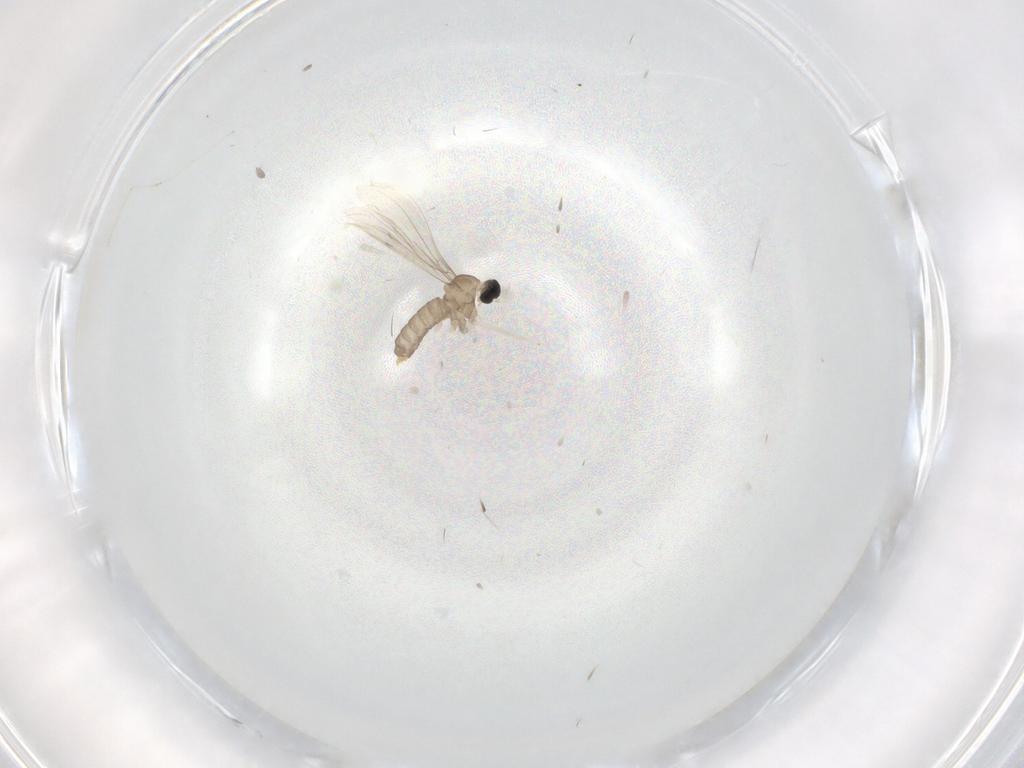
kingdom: Animalia
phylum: Arthropoda
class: Insecta
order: Diptera
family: Cecidomyiidae
